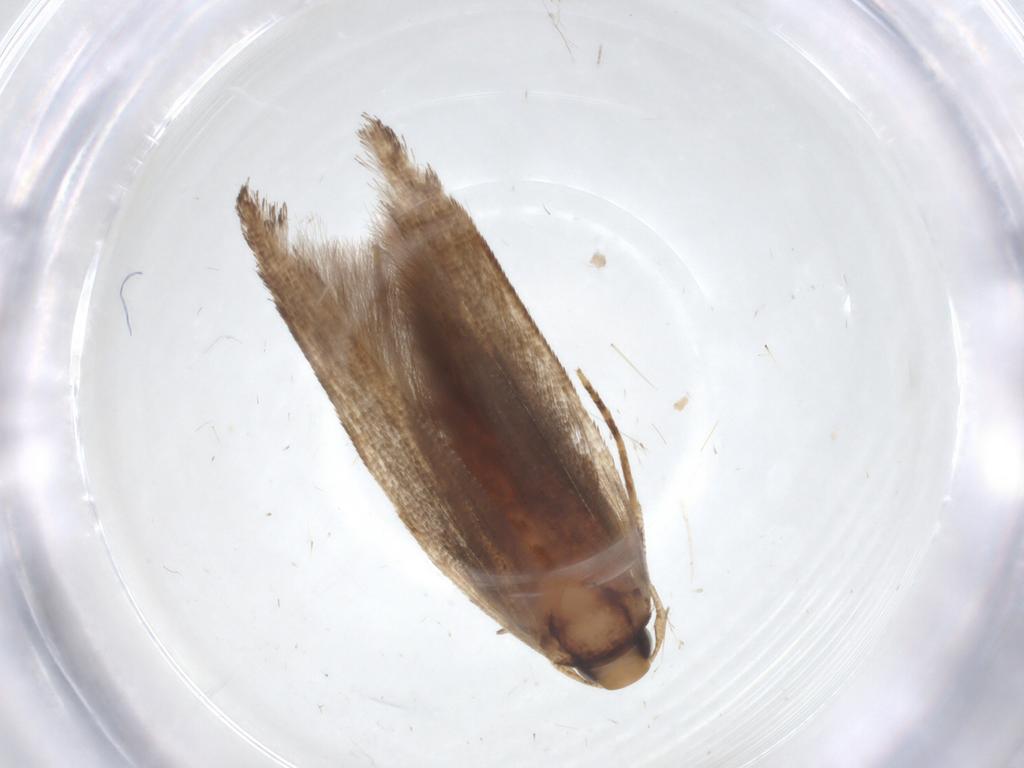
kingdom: Animalia
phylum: Arthropoda
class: Insecta
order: Lepidoptera
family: Cosmopterigidae
